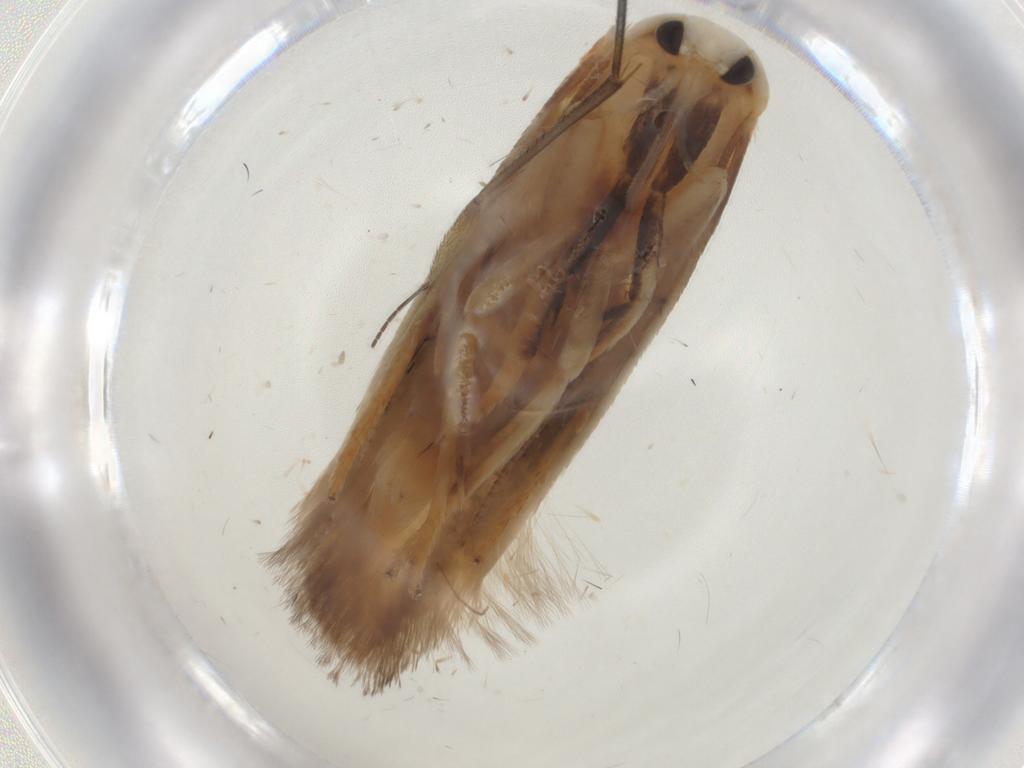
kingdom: Animalia
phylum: Arthropoda
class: Insecta
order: Lepidoptera
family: Geometridae
